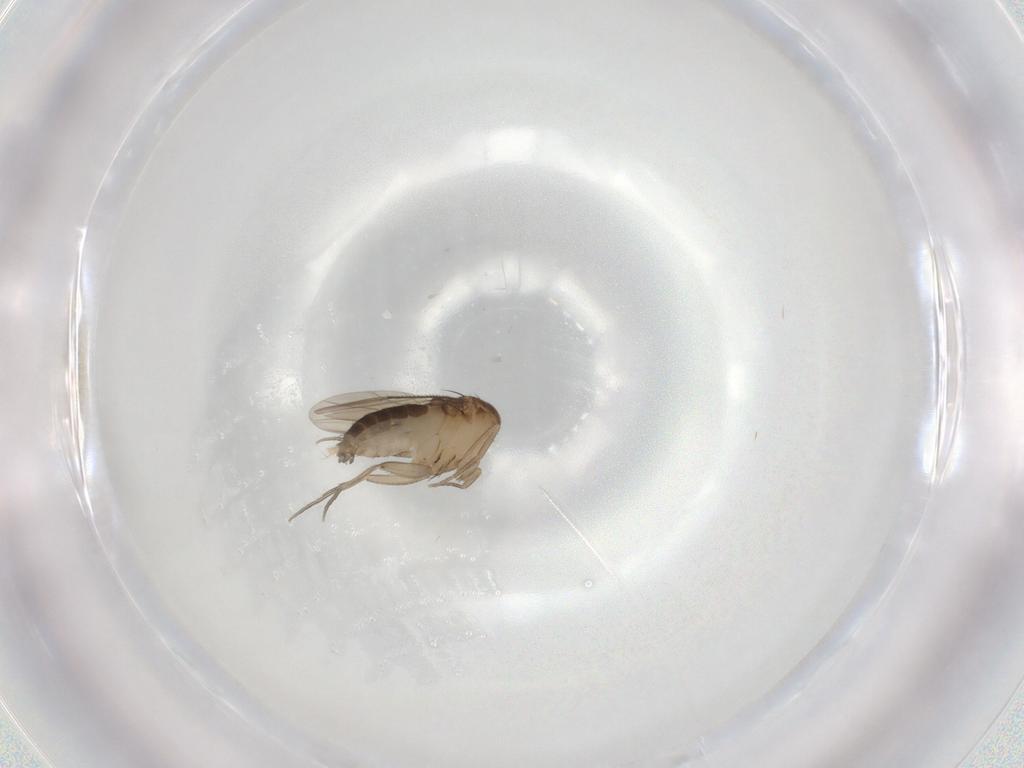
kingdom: Animalia
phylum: Arthropoda
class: Insecta
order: Diptera
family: Phoridae
